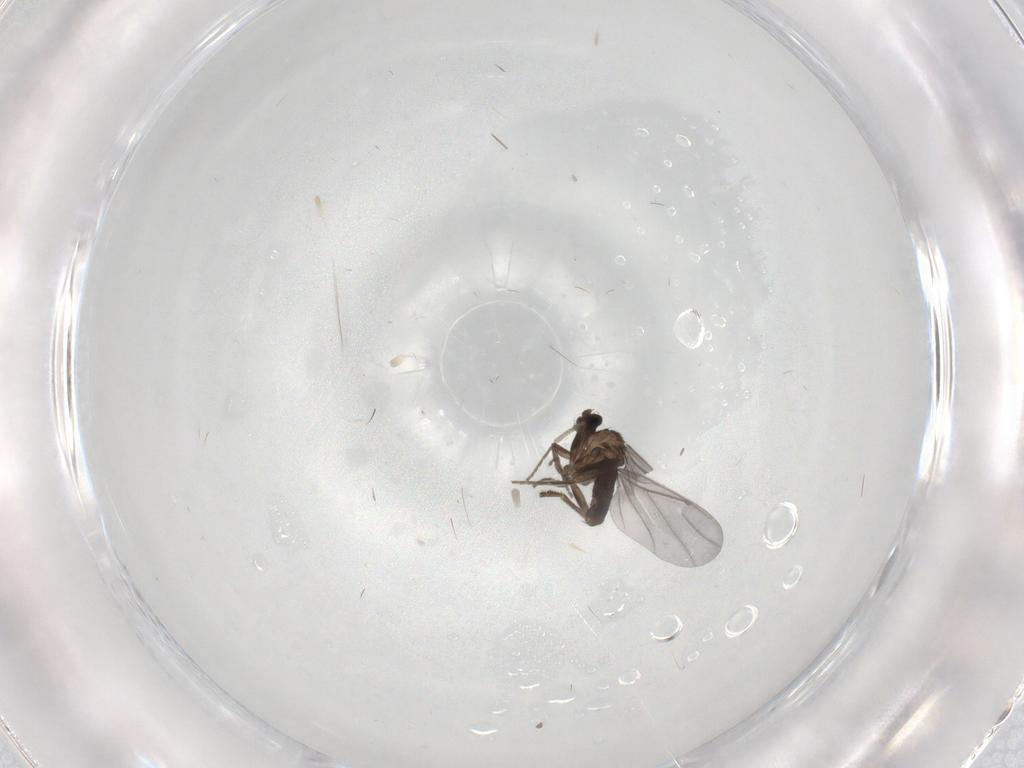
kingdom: Animalia
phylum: Arthropoda
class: Insecta
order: Diptera
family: Phoridae
